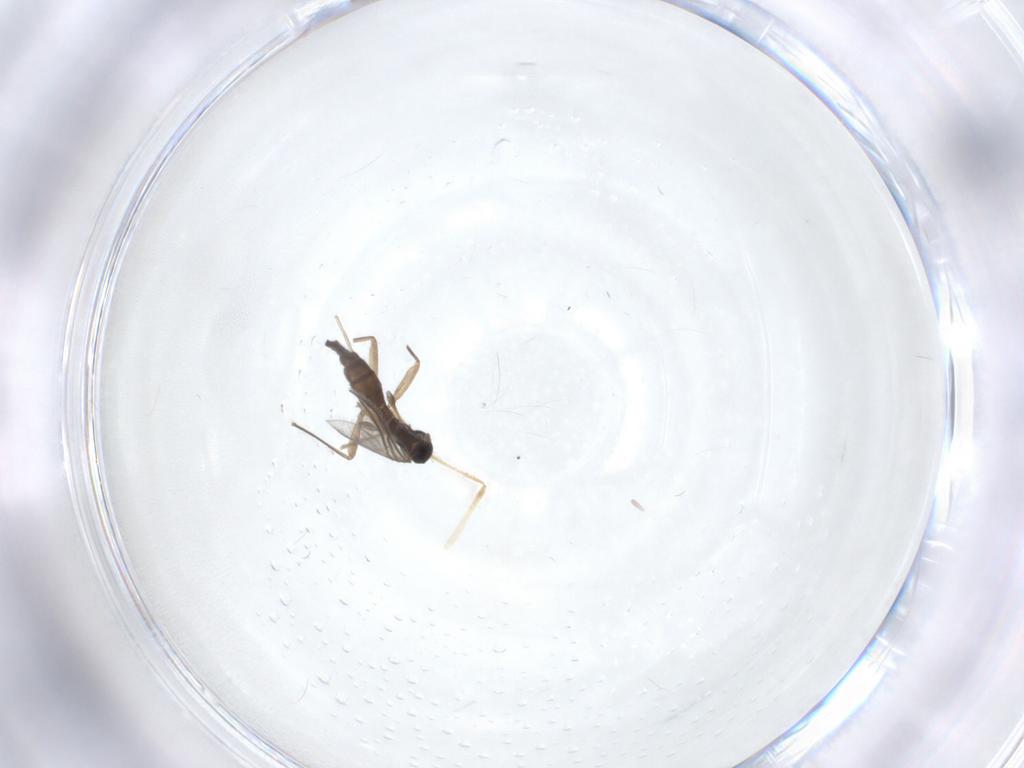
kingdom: Animalia
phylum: Arthropoda
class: Insecta
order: Diptera
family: Sciaridae
